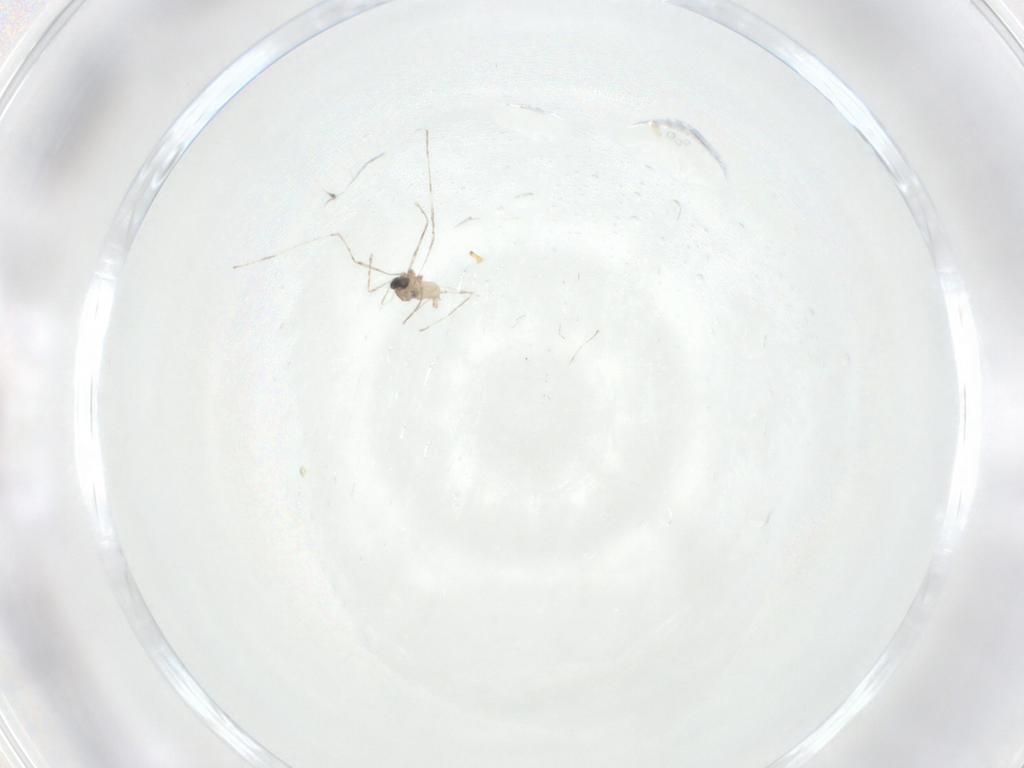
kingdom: Animalia
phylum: Arthropoda
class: Insecta
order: Diptera
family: Cecidomyiidae
